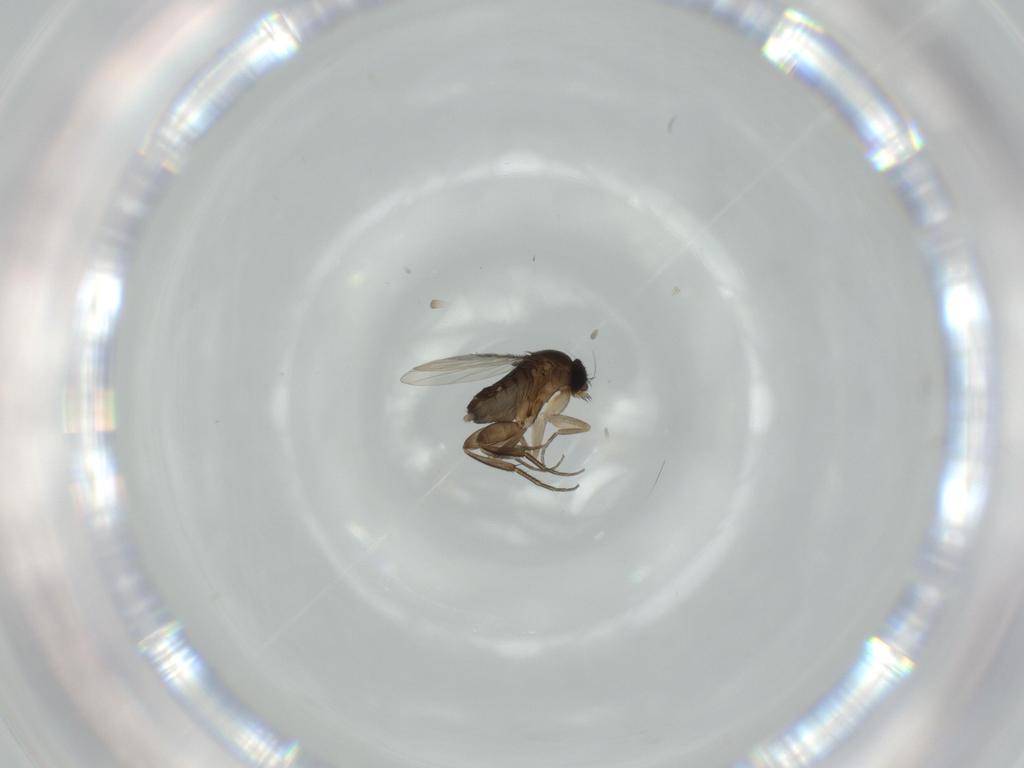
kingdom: Animalia
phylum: Arthropoda
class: Insecta
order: Diptera
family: Phoridae
